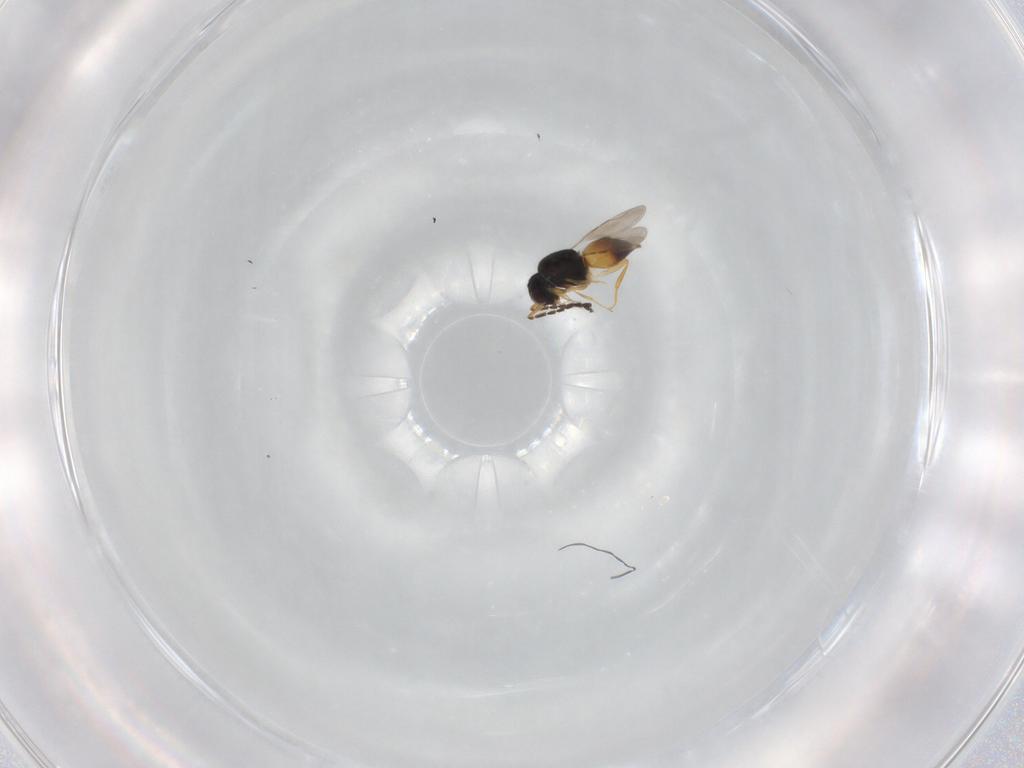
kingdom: Animalia
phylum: Arthropoda
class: Insecta
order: Hymenoptera
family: Ceraphronidae
